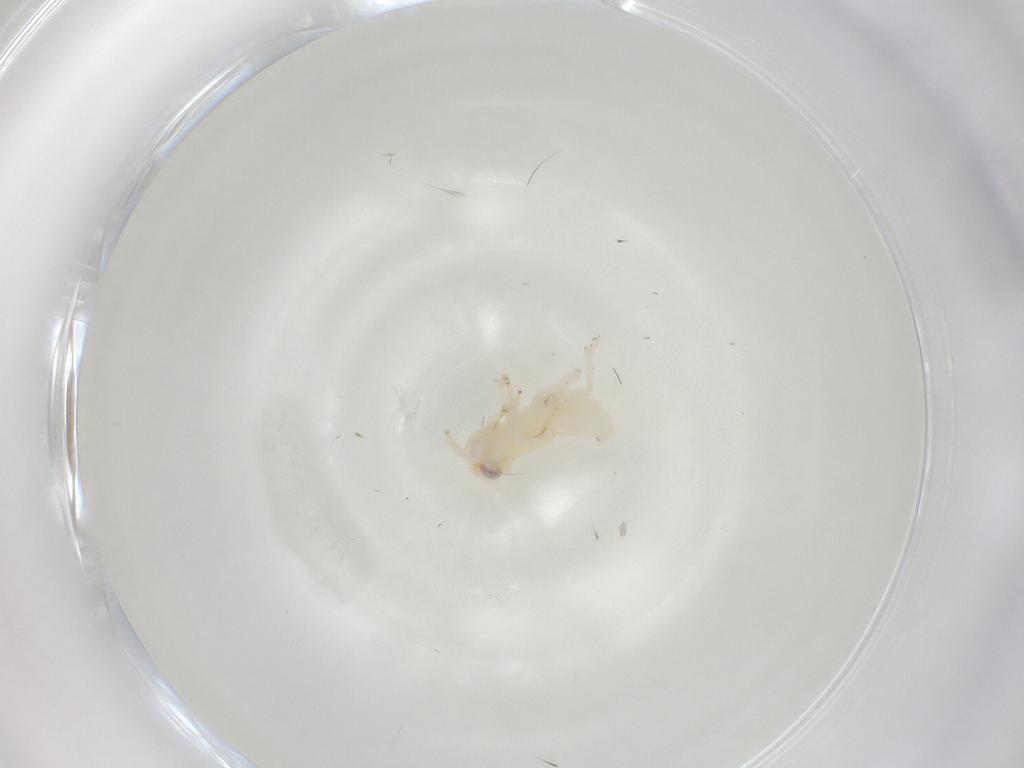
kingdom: Animalia
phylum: Arthropoda
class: Insecta
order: Hemiptera
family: Nogodinidae
